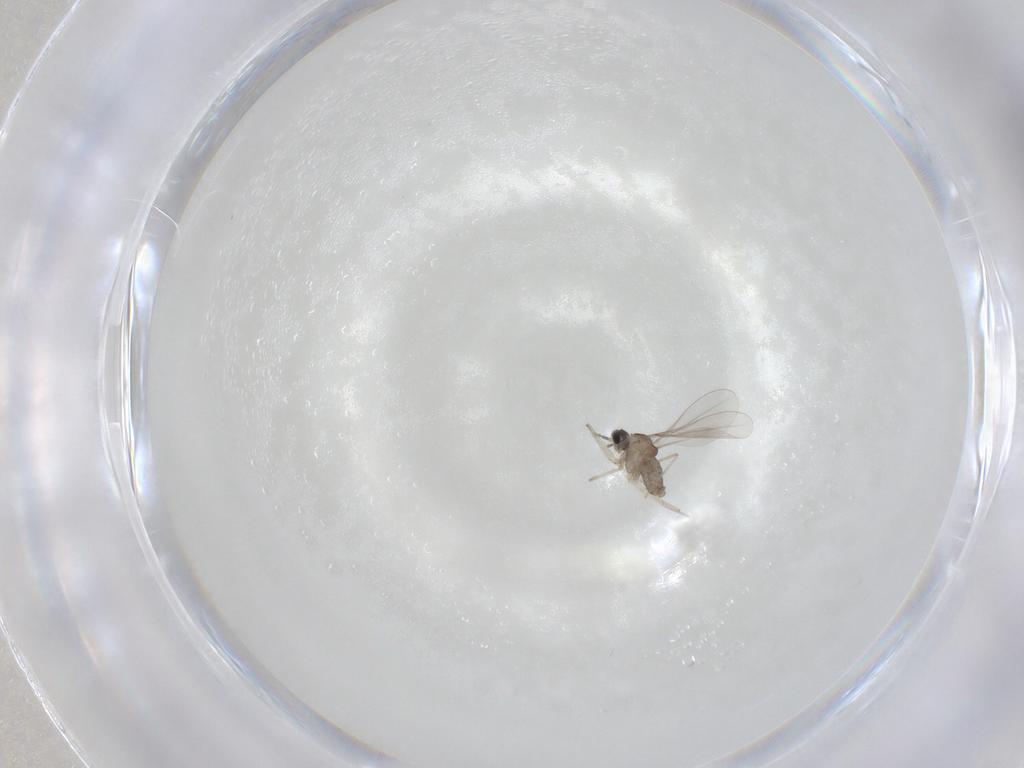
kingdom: Animalia
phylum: Arthropoda
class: Insecta
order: Diptera
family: Cecidomyiidae
